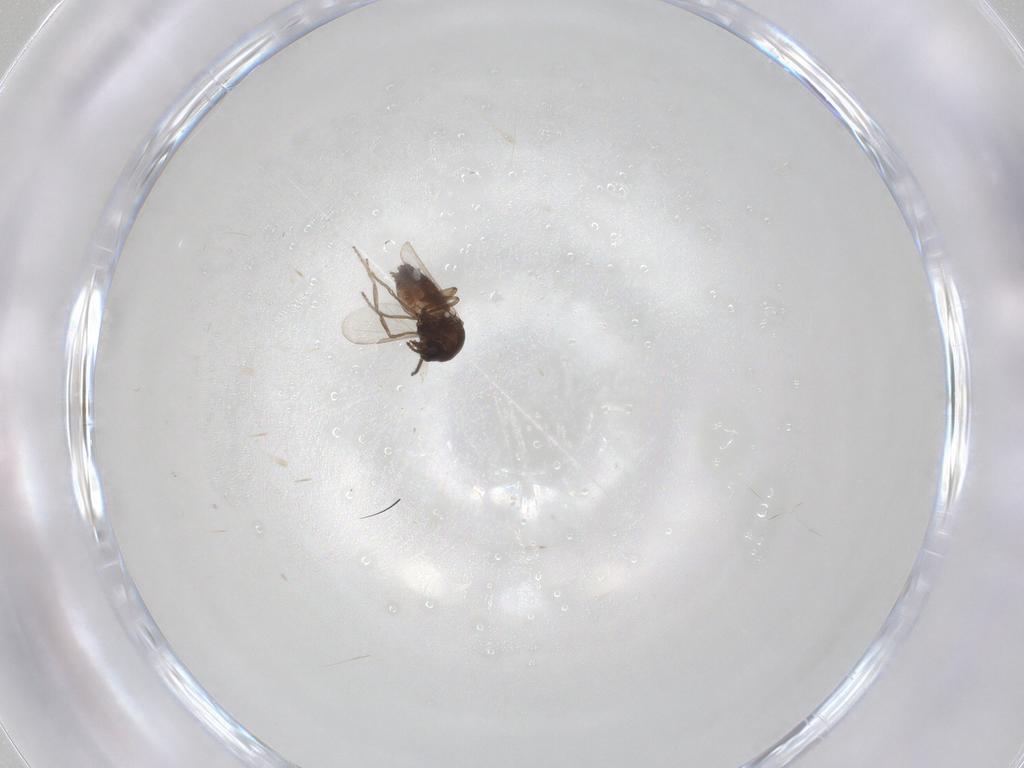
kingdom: Animalia
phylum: Arthropoda
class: Insecta
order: Diptera
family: Ceratopogonidae
